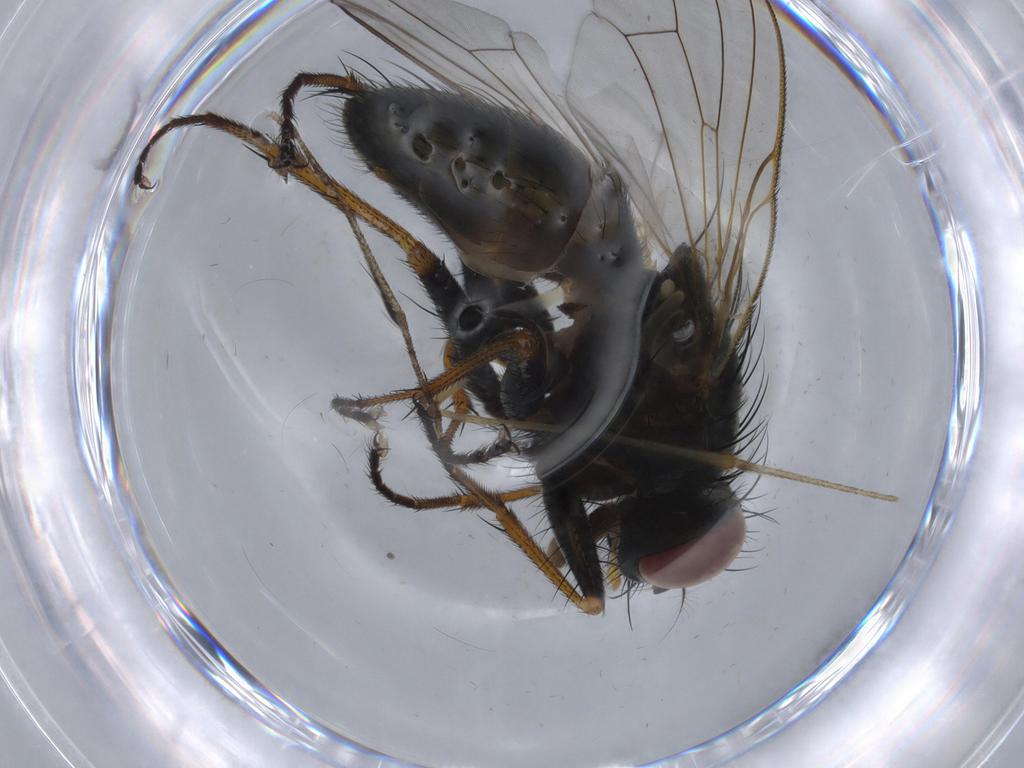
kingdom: Animalia
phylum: Arthropoda
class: Insecta
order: Diptera
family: Muscidae
